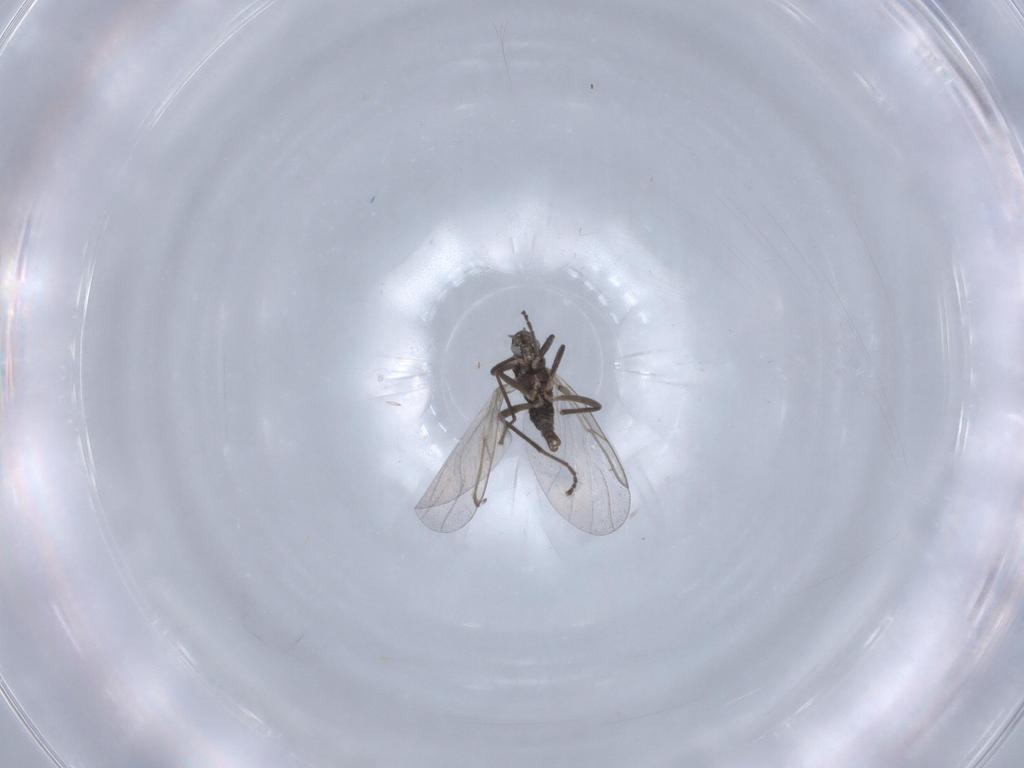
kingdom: Animalia
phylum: Arthropoda
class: Insecta
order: Diptera
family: Cecidomyiidae
